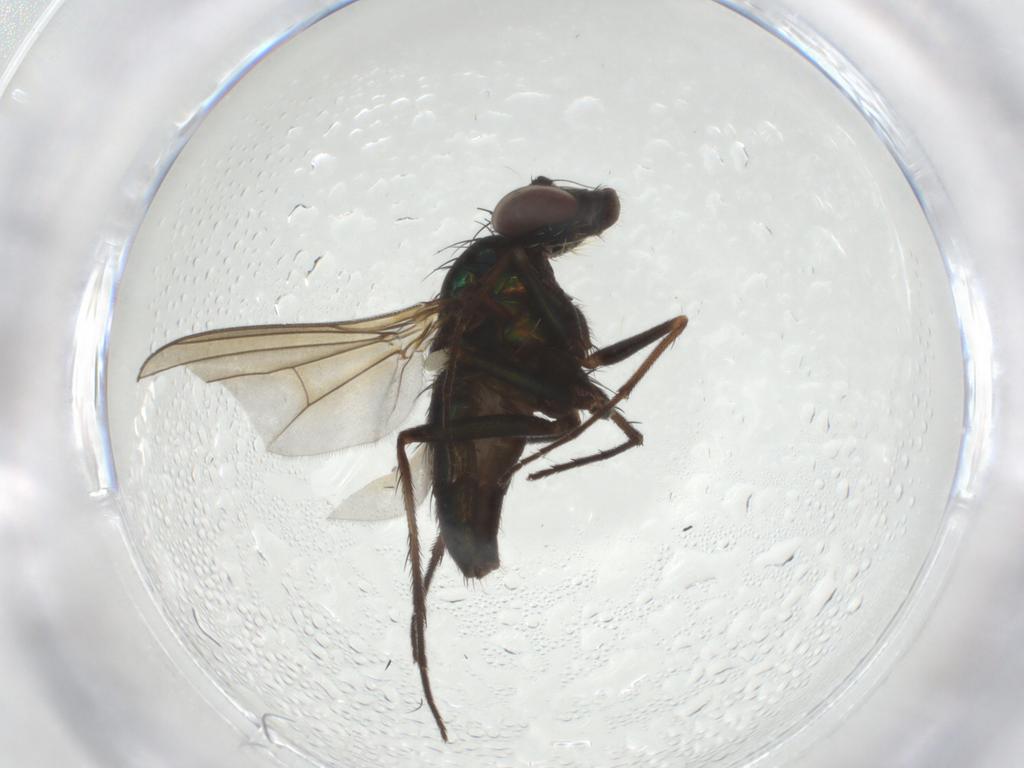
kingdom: Animalia
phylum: Arthropoda
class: Insecta
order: Diptera
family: Dolichopodidae
